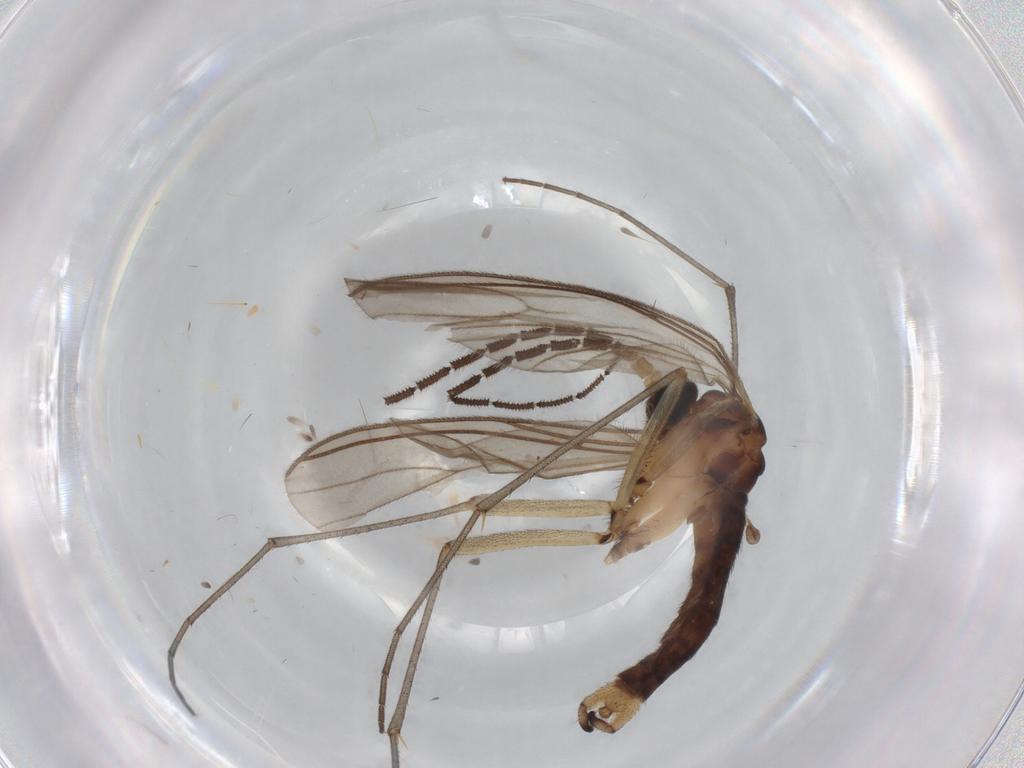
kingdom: Animalia
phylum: Arthropoda
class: Insecta
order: Diptera
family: Sciaridae
